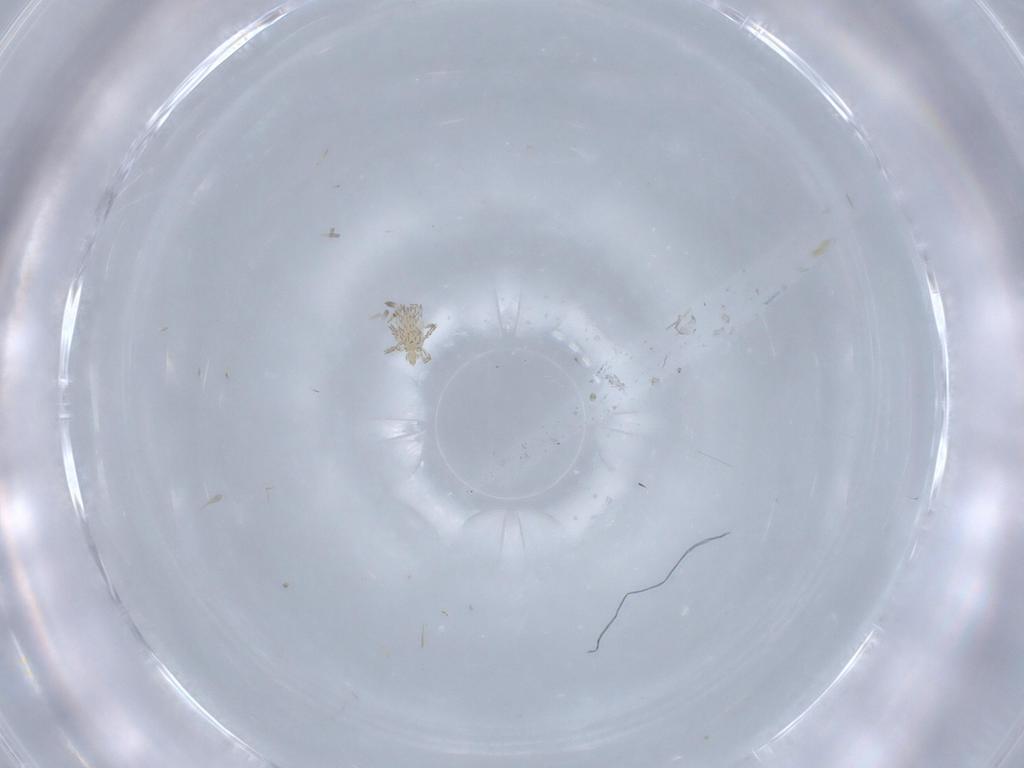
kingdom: Animalia
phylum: Arthropoda
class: Arachnida
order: Trombidiformes
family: Erythraeidae
